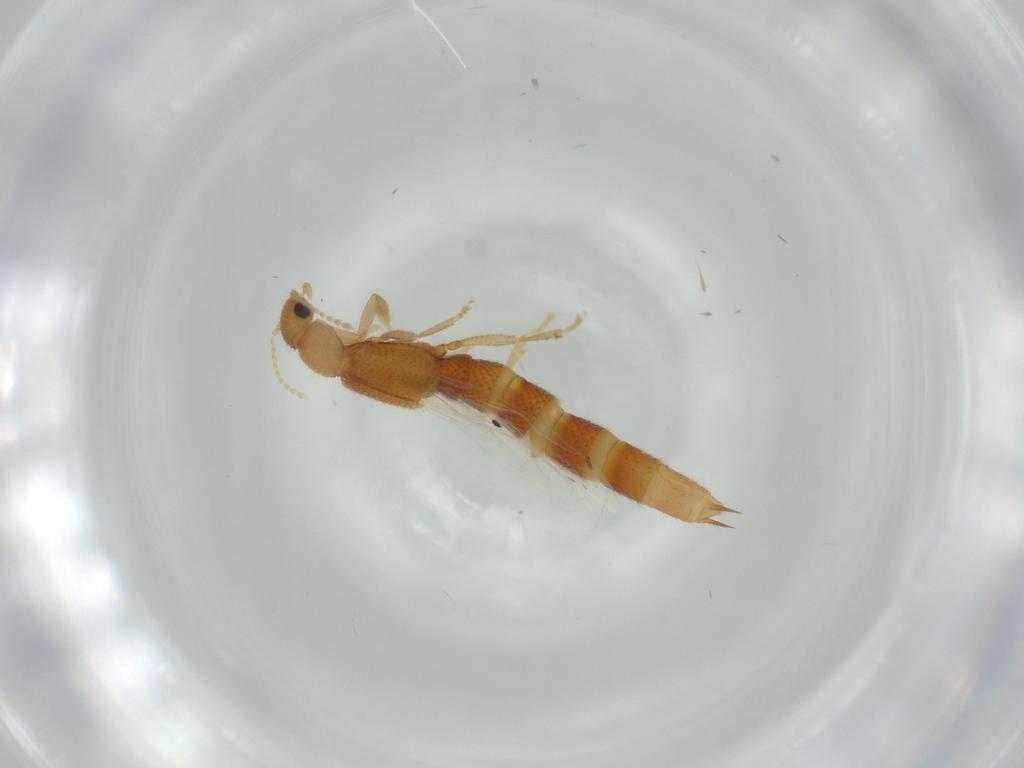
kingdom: Animalia
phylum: Arthropoda
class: Insecta
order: Coleoptera
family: Staphylinidae
